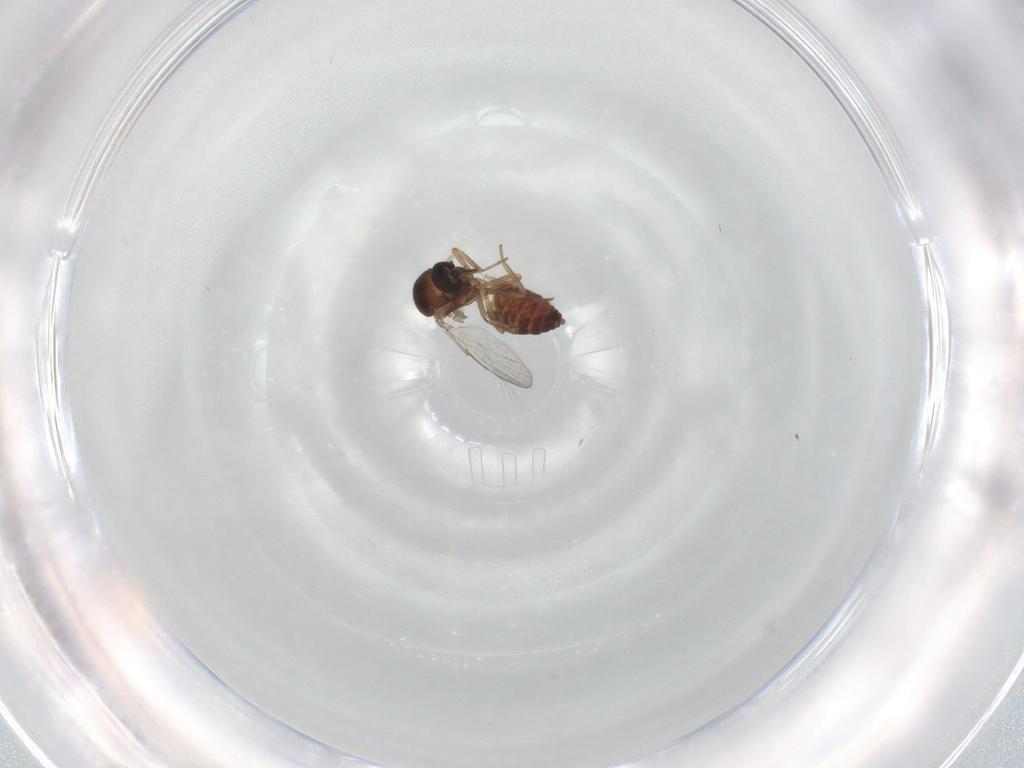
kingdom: Animalia
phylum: Arthropoda
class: Insecta
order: Diptera
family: Psychodidae
